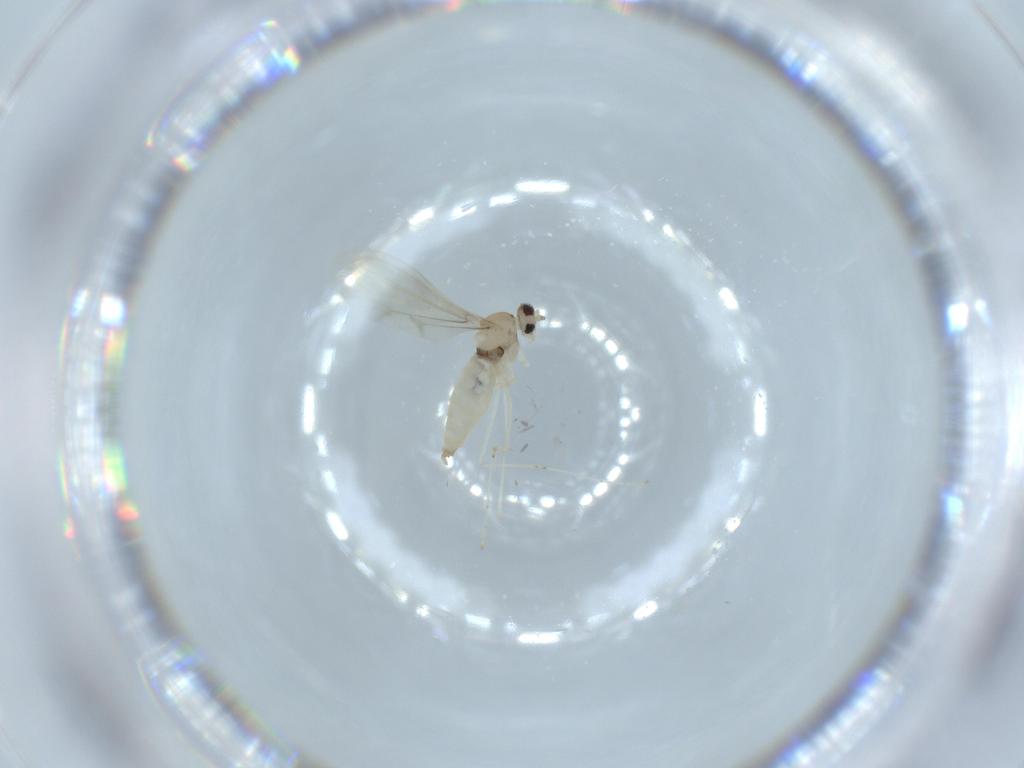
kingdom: Animalia
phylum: Arthropoda
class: Insecta
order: Diptera
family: Cecidomyiidae
